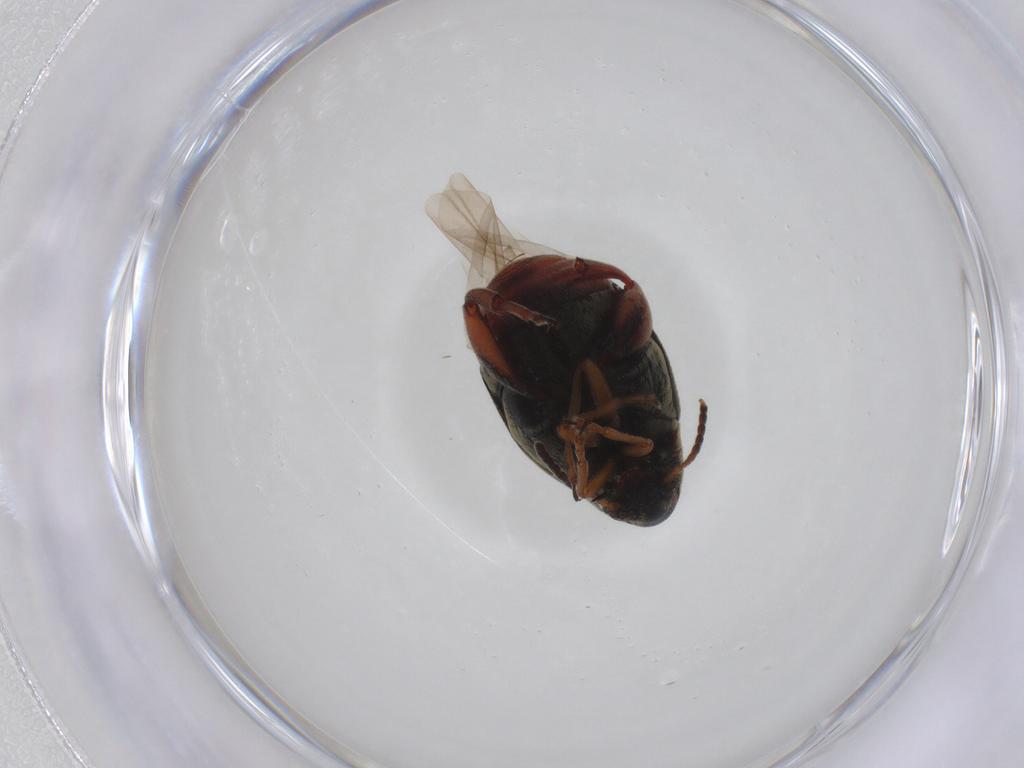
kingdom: Animalia
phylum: Arthropoda
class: Insecta
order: Coleoptera
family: Chrysomelidae
